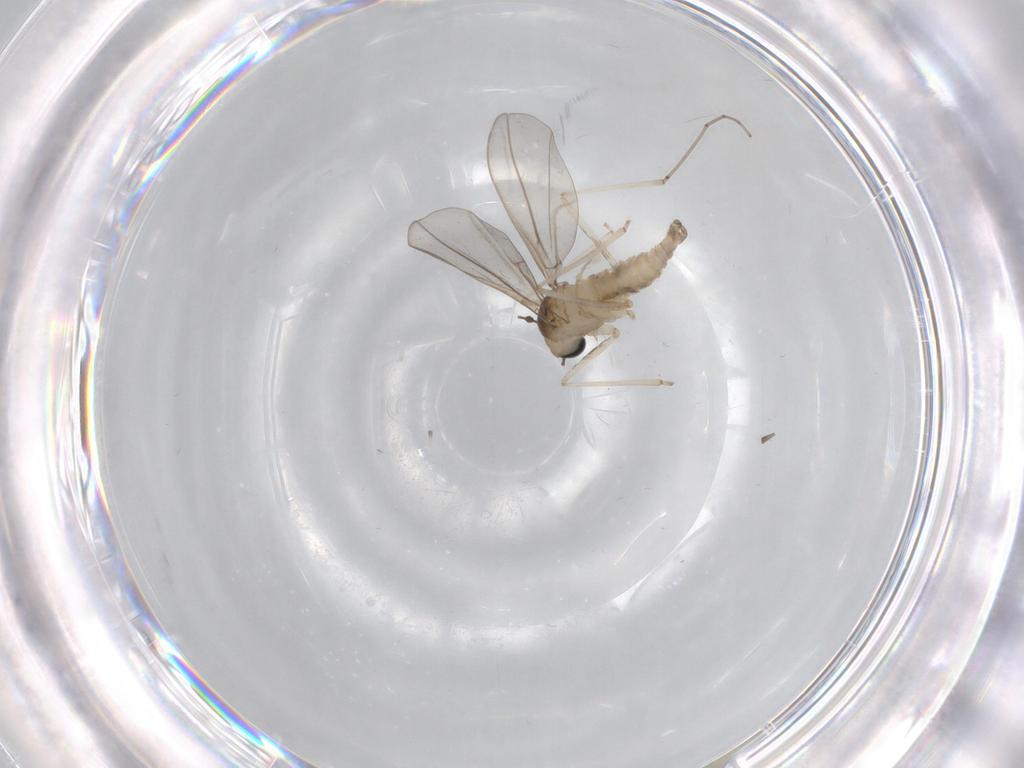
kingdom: Animalia
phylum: Arthropoda
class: Insecta
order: Diptera
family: Cecidomyiidae
